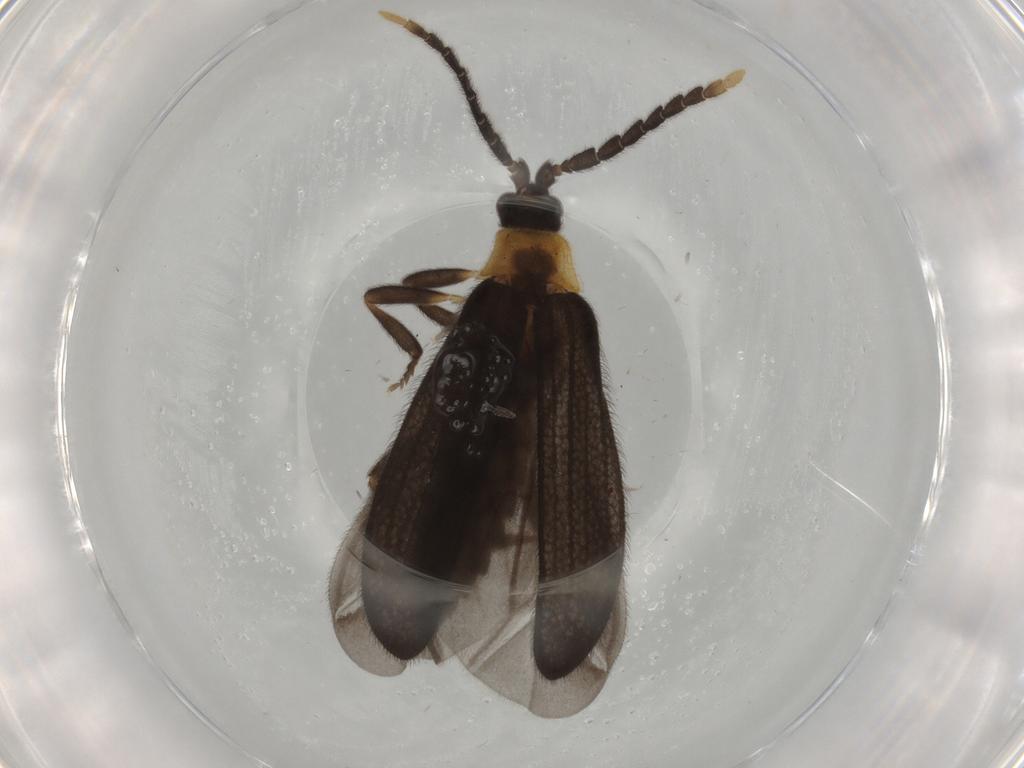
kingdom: Animalia
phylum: Arthropoda
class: Insecta
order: Coleoptera
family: Lycidae
